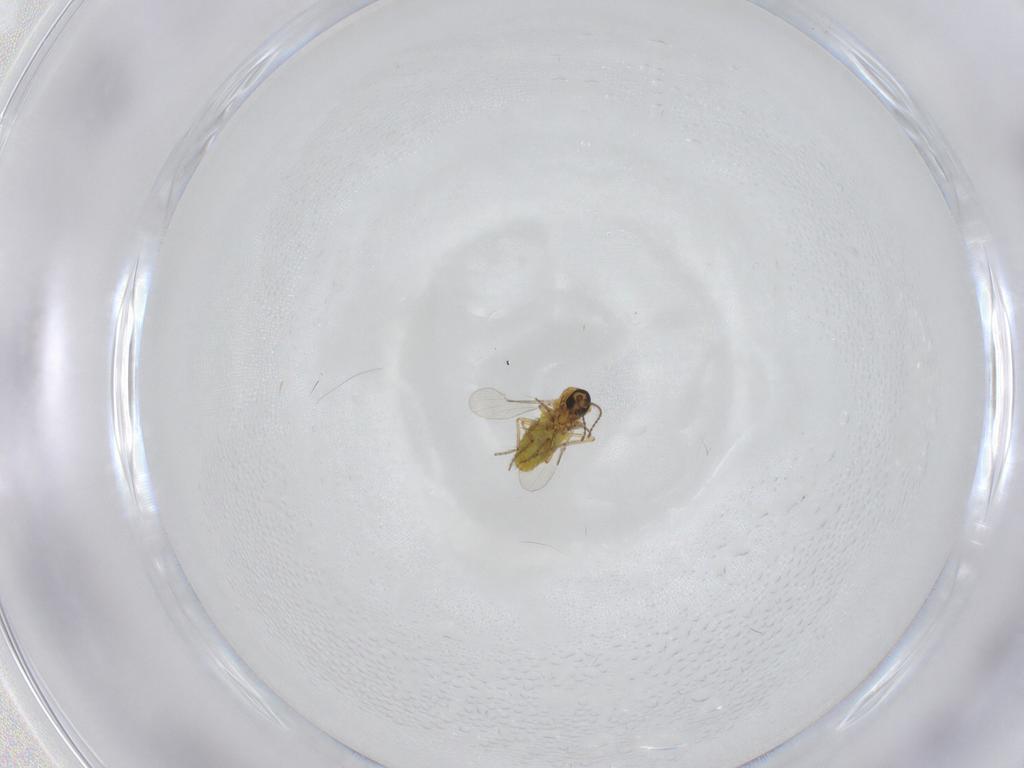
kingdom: Animalia
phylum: Arthropoda
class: Insecta
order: Diptera
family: Ceratopogonidae
